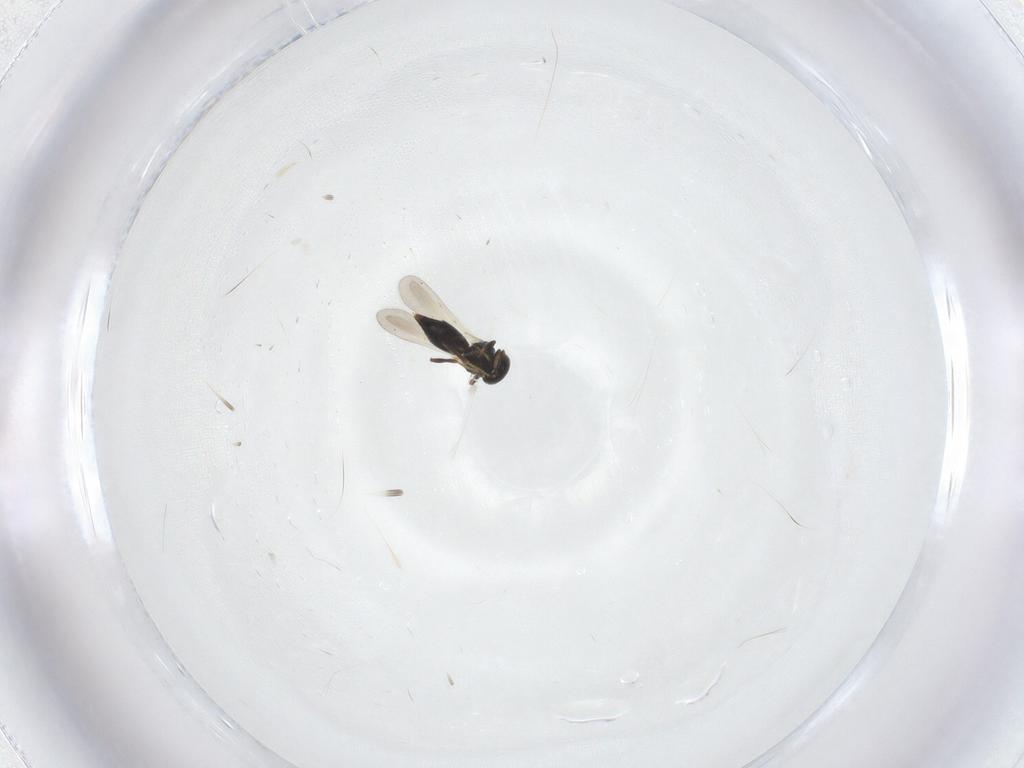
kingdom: Animalia
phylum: Arthropoda
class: Insecta
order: Hymenoptera
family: Platygastridae
